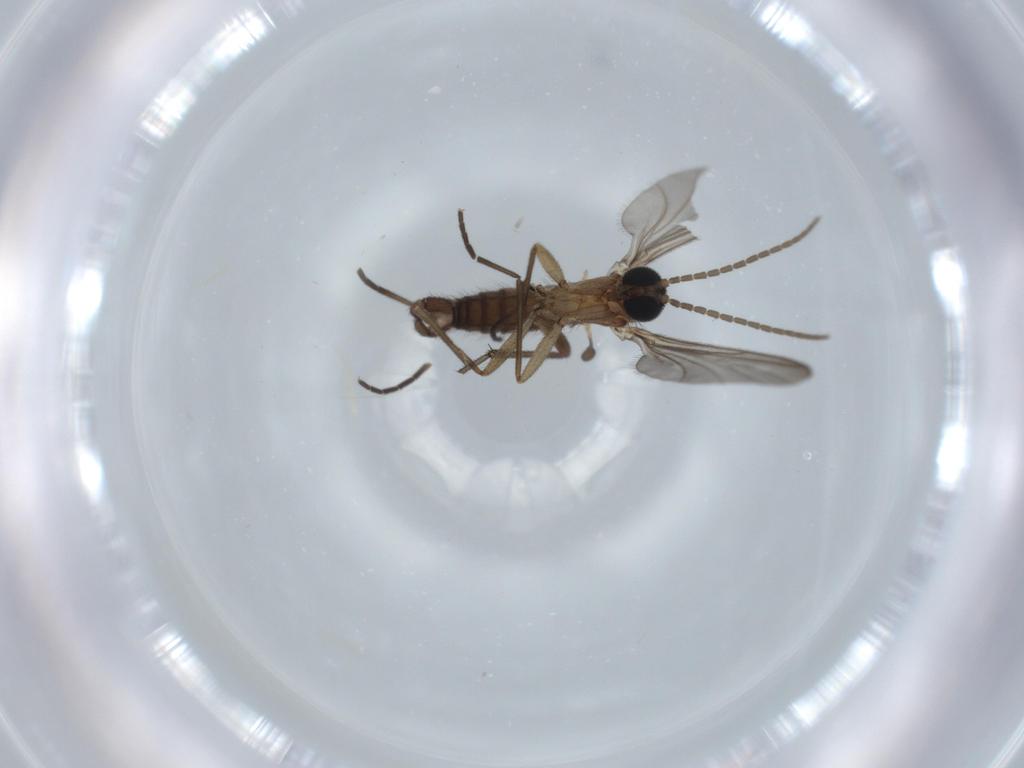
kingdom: Animalia
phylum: Arthropoda
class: Insecta
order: Diptera
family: Sciaridae
